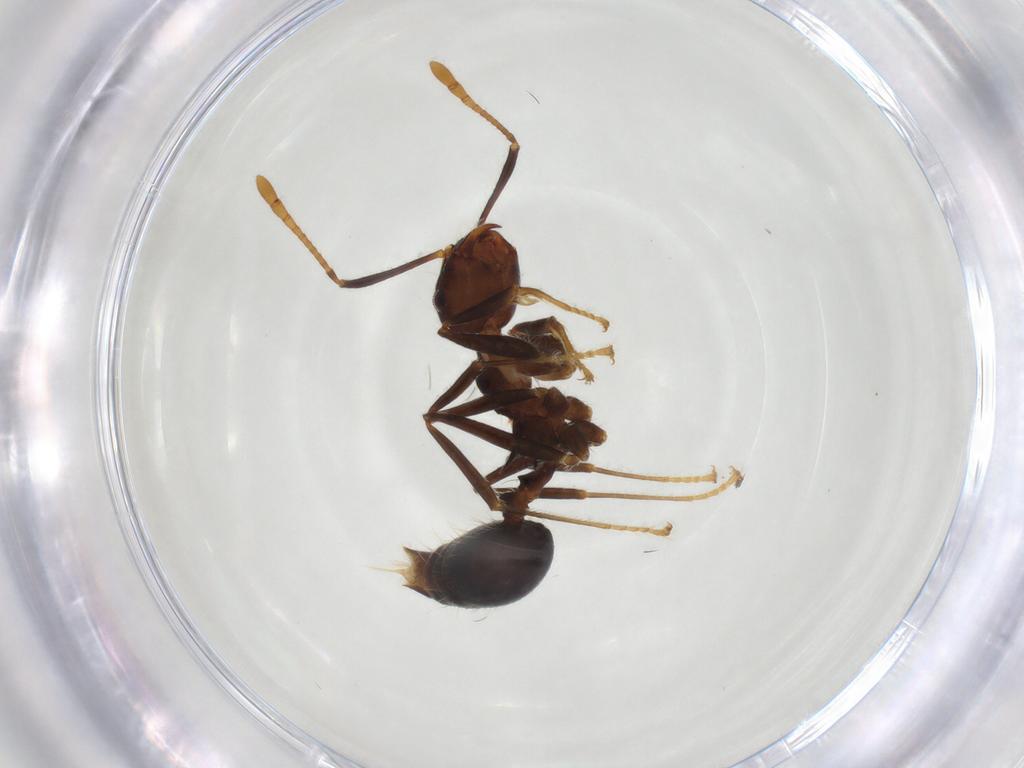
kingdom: Animalia
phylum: Arthropoda
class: Insecta
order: Hymenoptera
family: Formicidae
